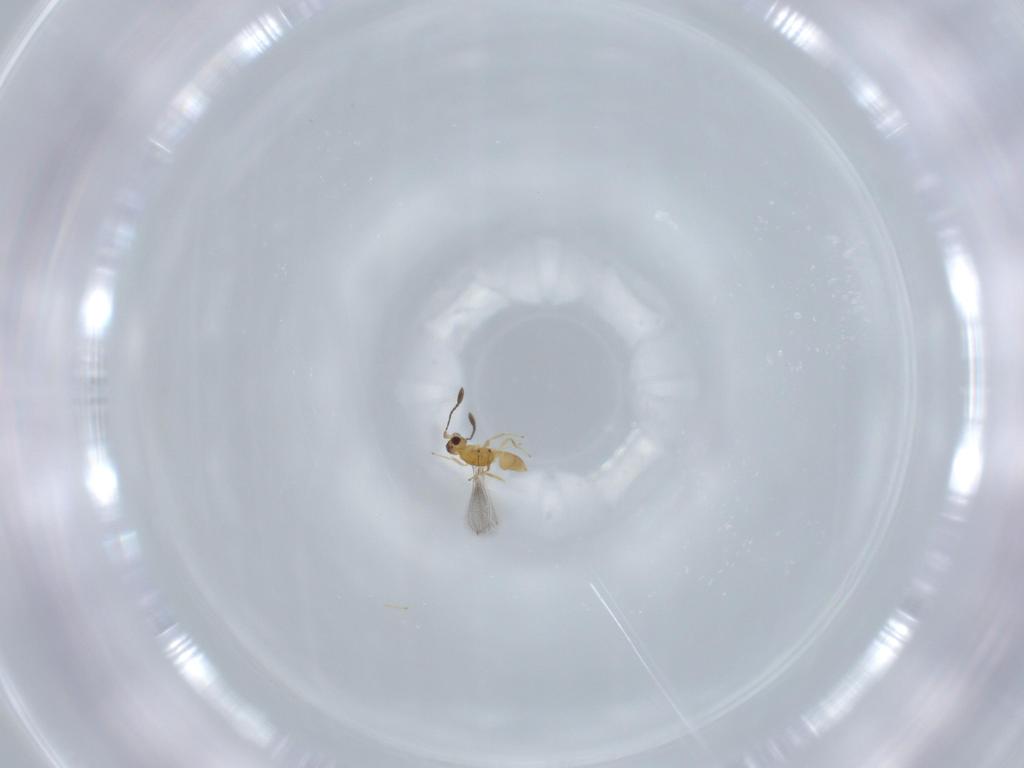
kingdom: Animalia
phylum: Arthropoda
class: Insecta
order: Hymenoptera
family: Mymaridae
